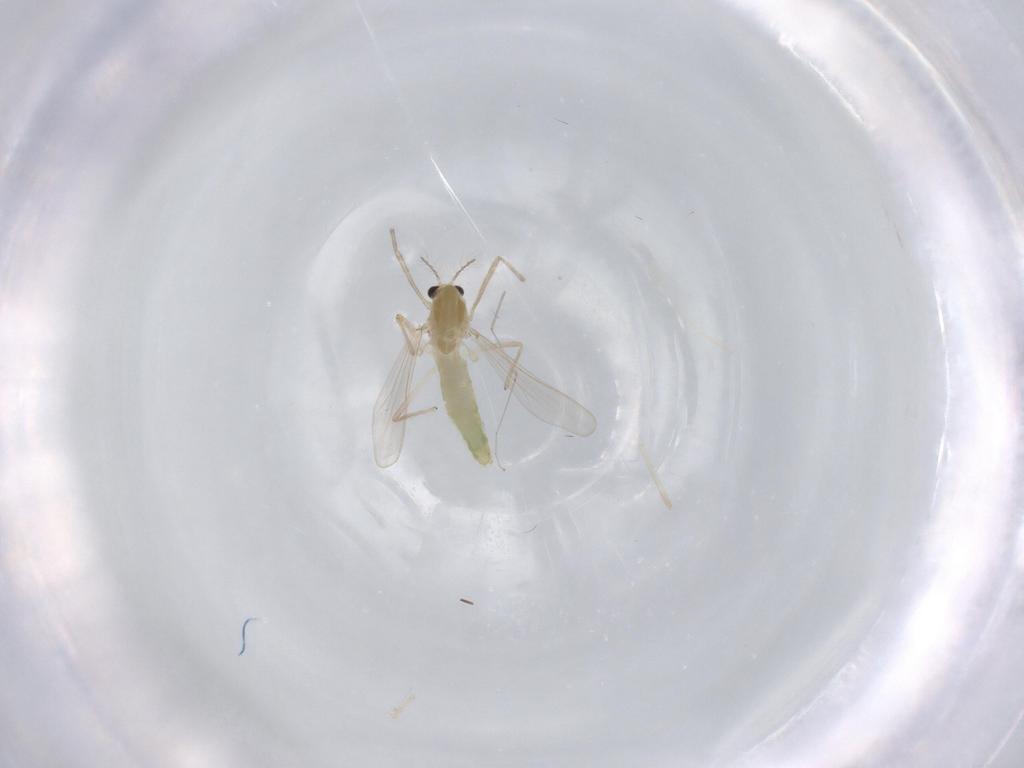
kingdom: Animalia
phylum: Arthropoda
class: Insecta
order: Diptera
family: Chironomidae
